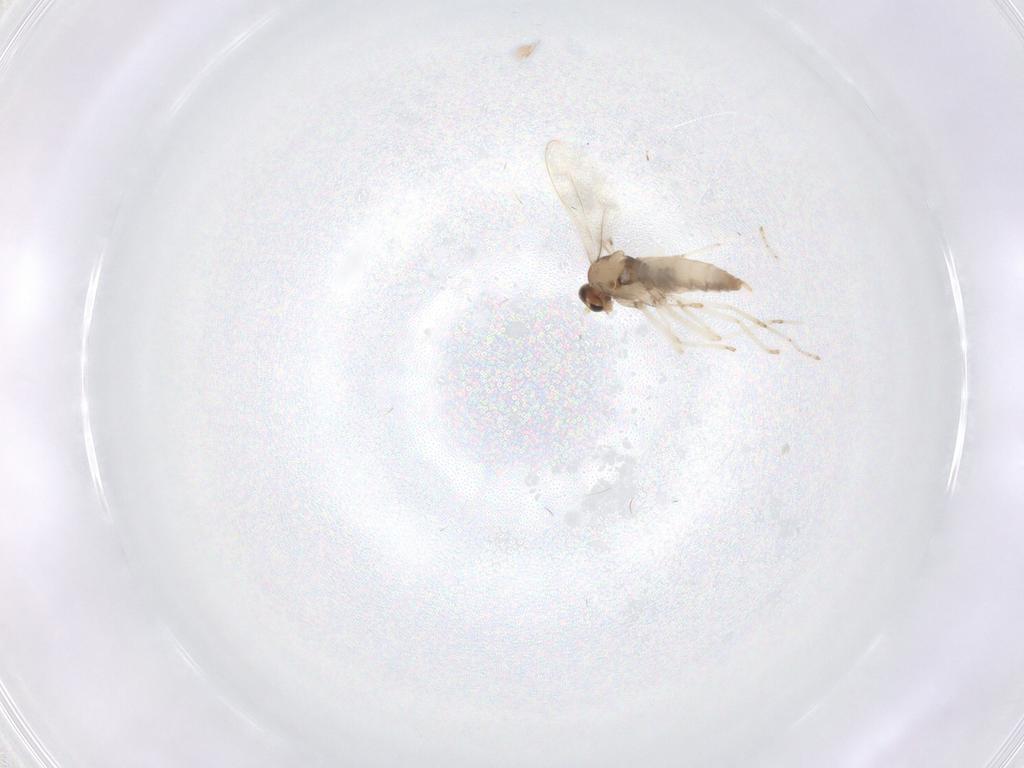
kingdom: Animalia
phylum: Arthropoda
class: Insecta
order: Diptera
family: Cecidomyiidae
